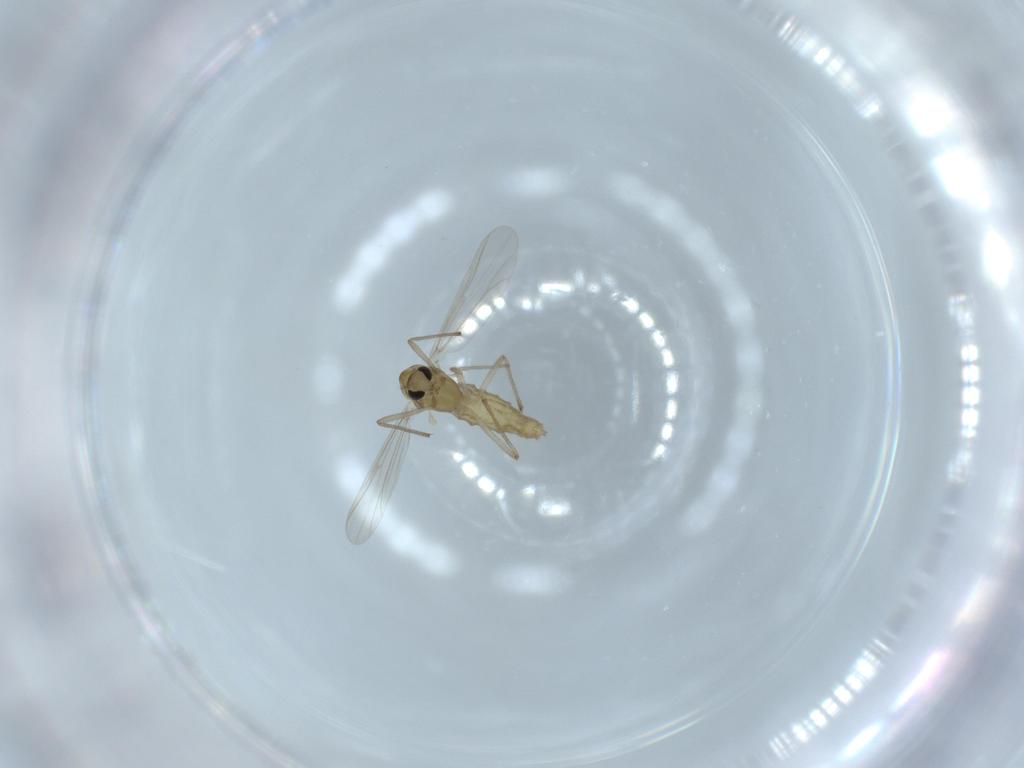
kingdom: Animalia
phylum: Arthropoda
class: Insecta
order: Diptera
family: Chironomidae
